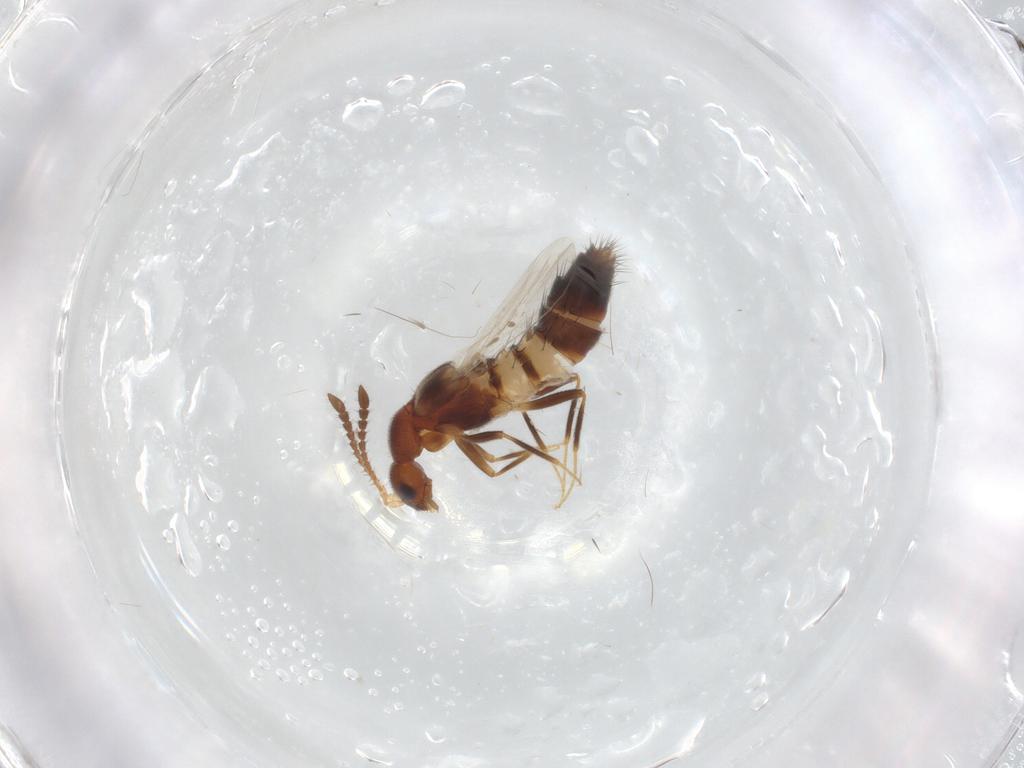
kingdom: Animalia
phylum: Arthropoda
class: Insecta
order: Coleoptera
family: Staphylinidae
